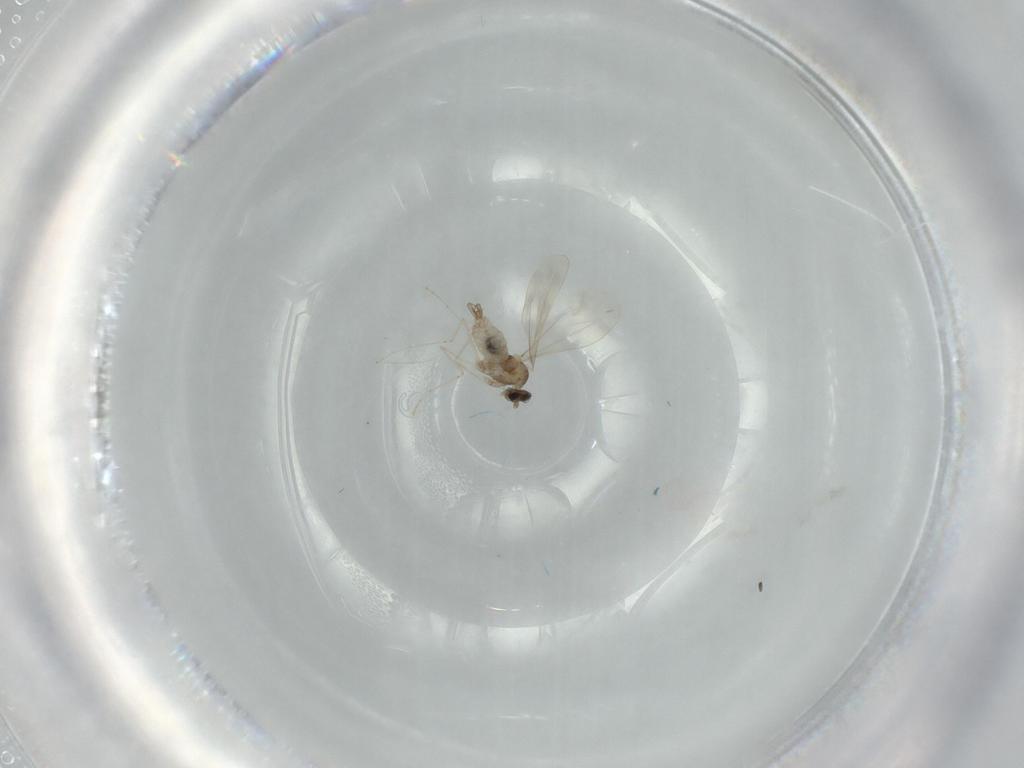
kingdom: Animalia
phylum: Arthropoda
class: Insecta
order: Diptera
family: Cecidomyiidae
